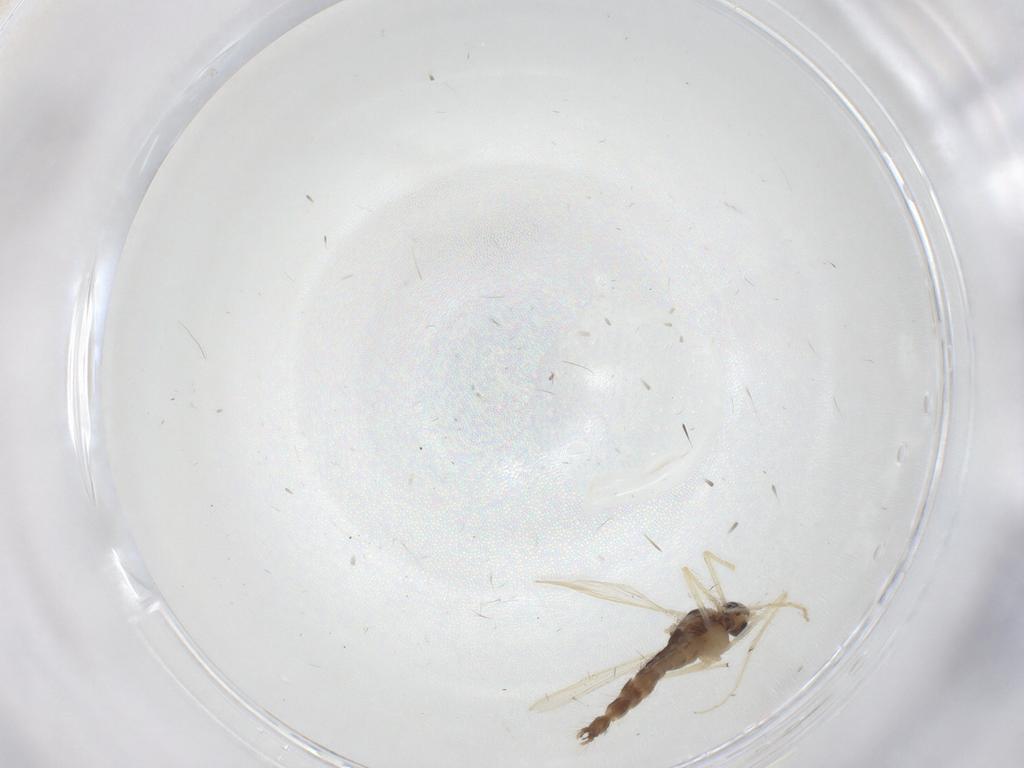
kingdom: Animalia
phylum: Arthropoda
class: Insecta
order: Diptera
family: Chironomidae
